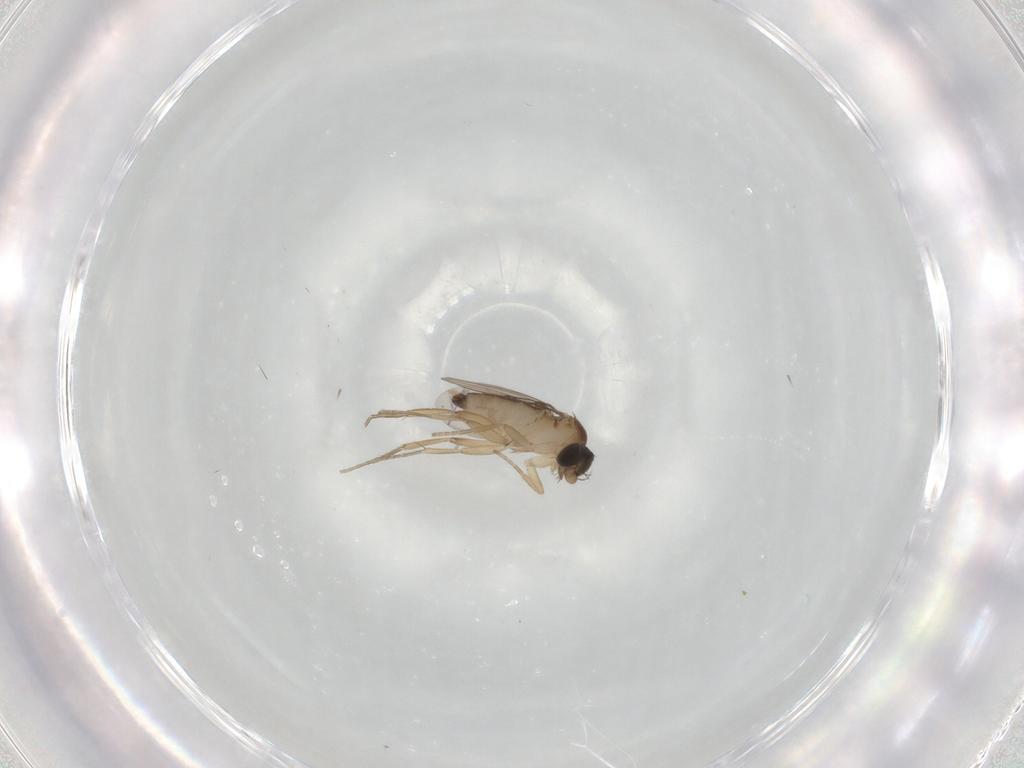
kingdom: Animalia
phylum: Arthropoda
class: Insecta
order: Diptera
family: Phoridae
